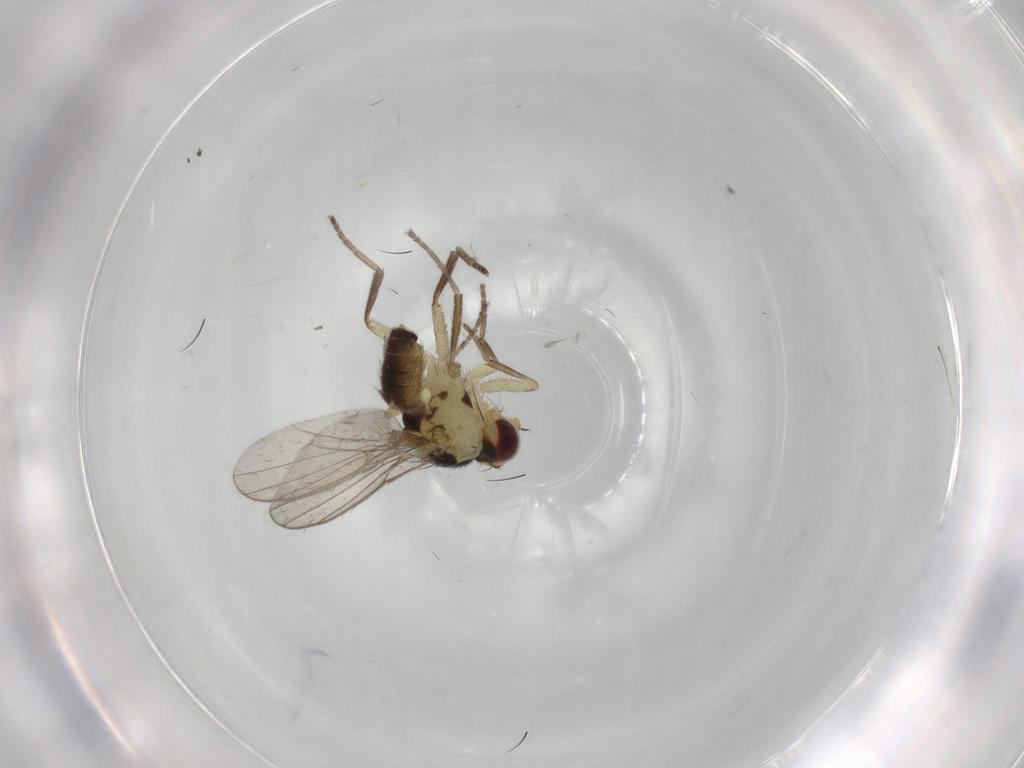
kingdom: Animalia
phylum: Arthropoda
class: Insecta
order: Diptera
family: Agromyzidae
